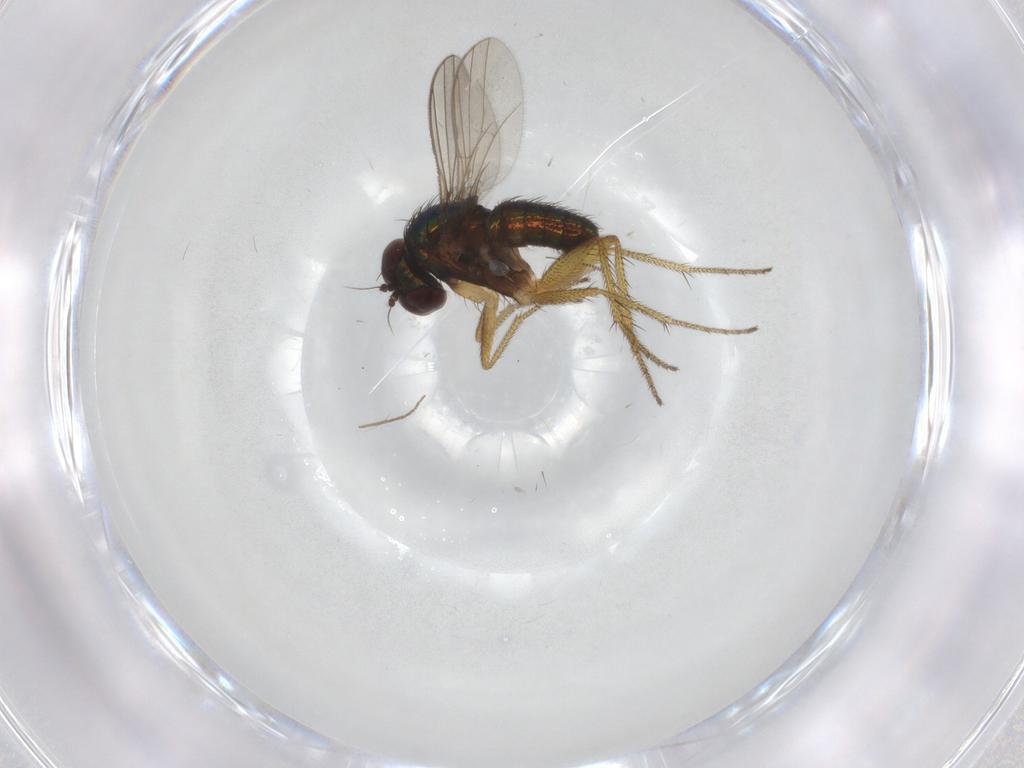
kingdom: Animalia
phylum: Arthropoda
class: Insecta
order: Diptera
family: Dolichopodidae
